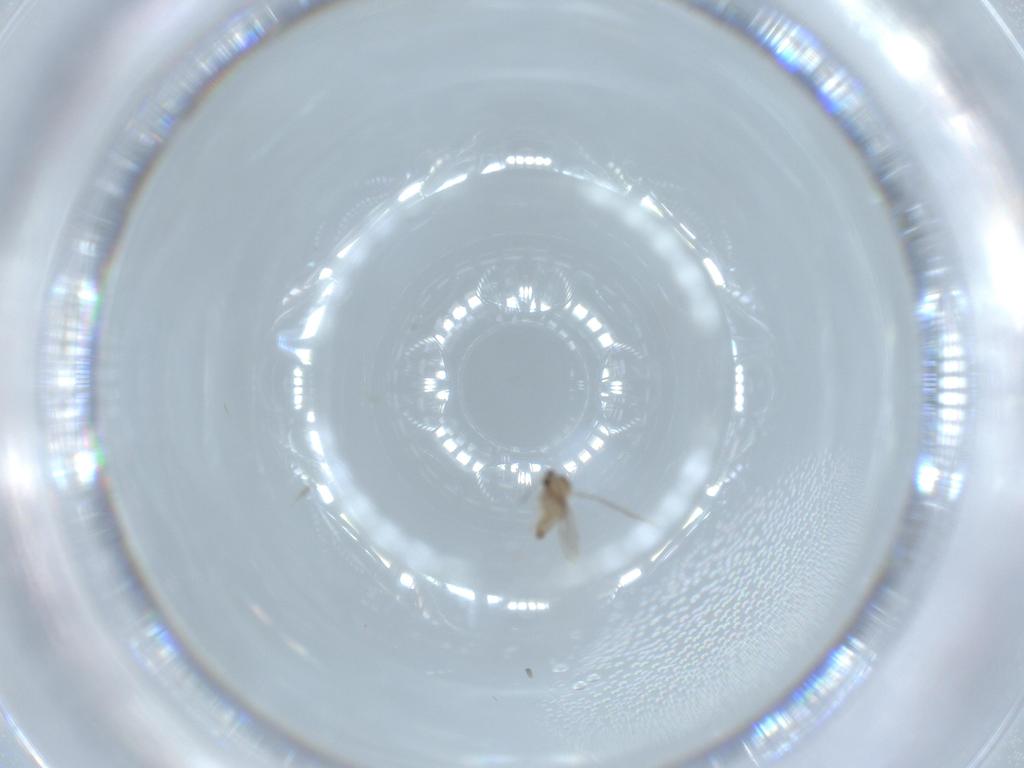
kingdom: Animalia
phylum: Arthropoda
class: Insecta
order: Diptera
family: Cecidomyiidae
